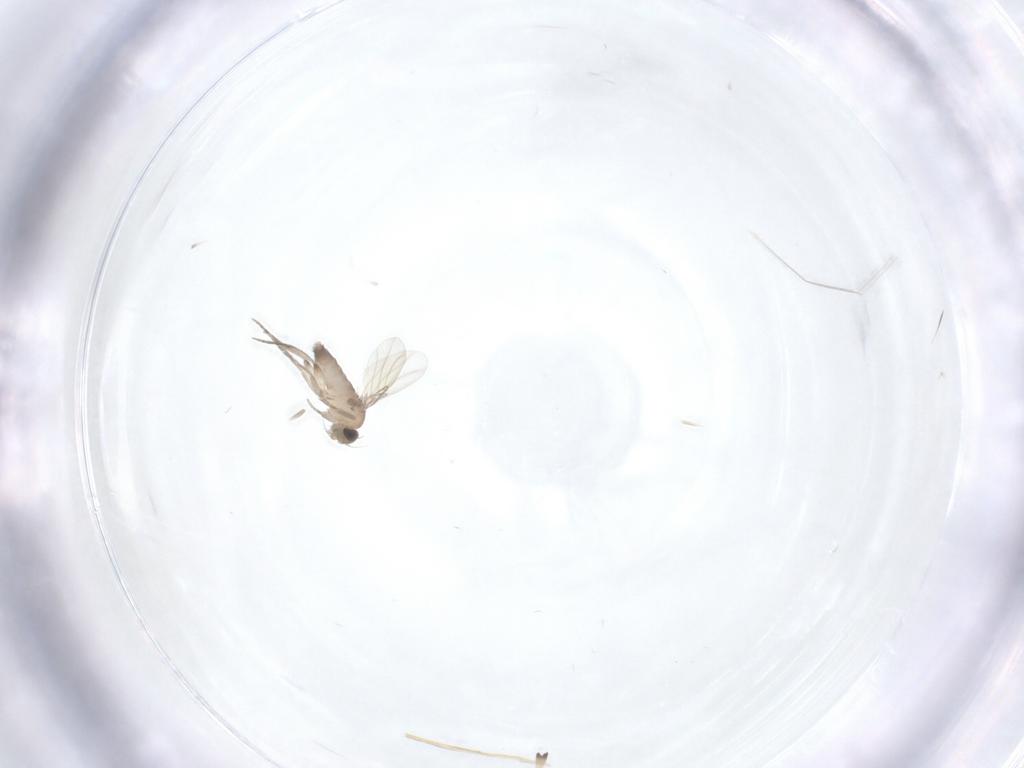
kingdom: Animalia
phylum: Arthropoda
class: Insecta
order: Diptera
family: Phoridae
